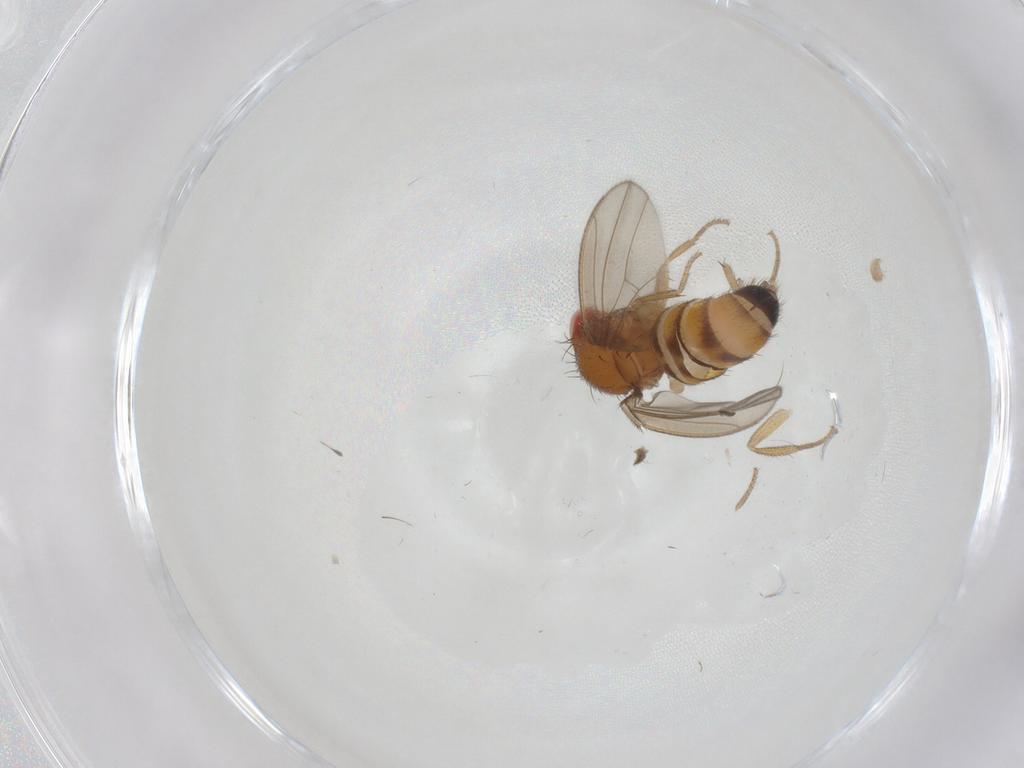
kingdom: Animalia
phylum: Arthropoda
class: Insecta
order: Diptera
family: Drosophilidae
